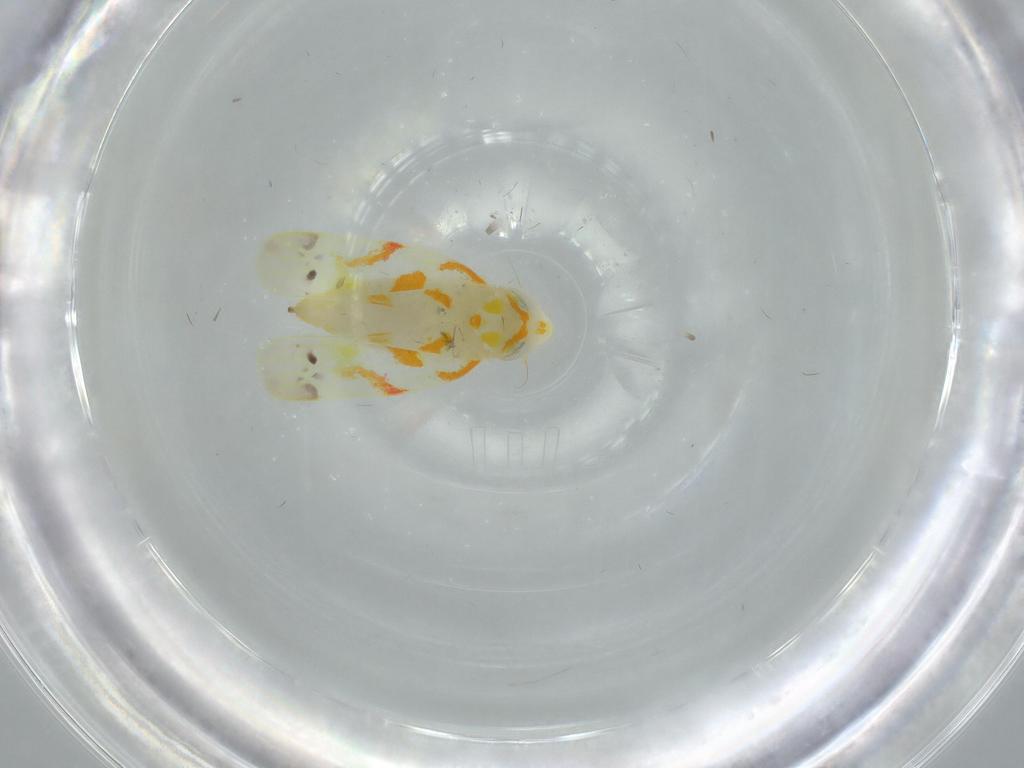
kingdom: Animalia
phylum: Arthropoda
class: Insecta
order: Hemiptera
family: Cicadellidae
